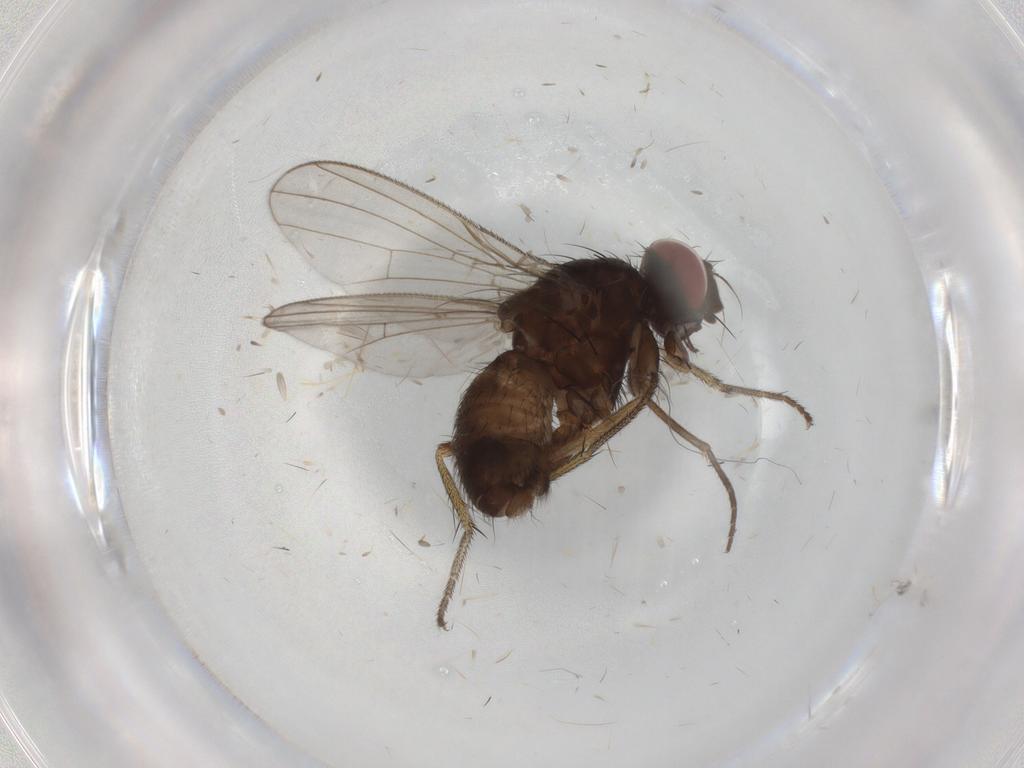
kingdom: Animalia
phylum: Arthropoda
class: Insecta
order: Diptera
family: Muscidae
